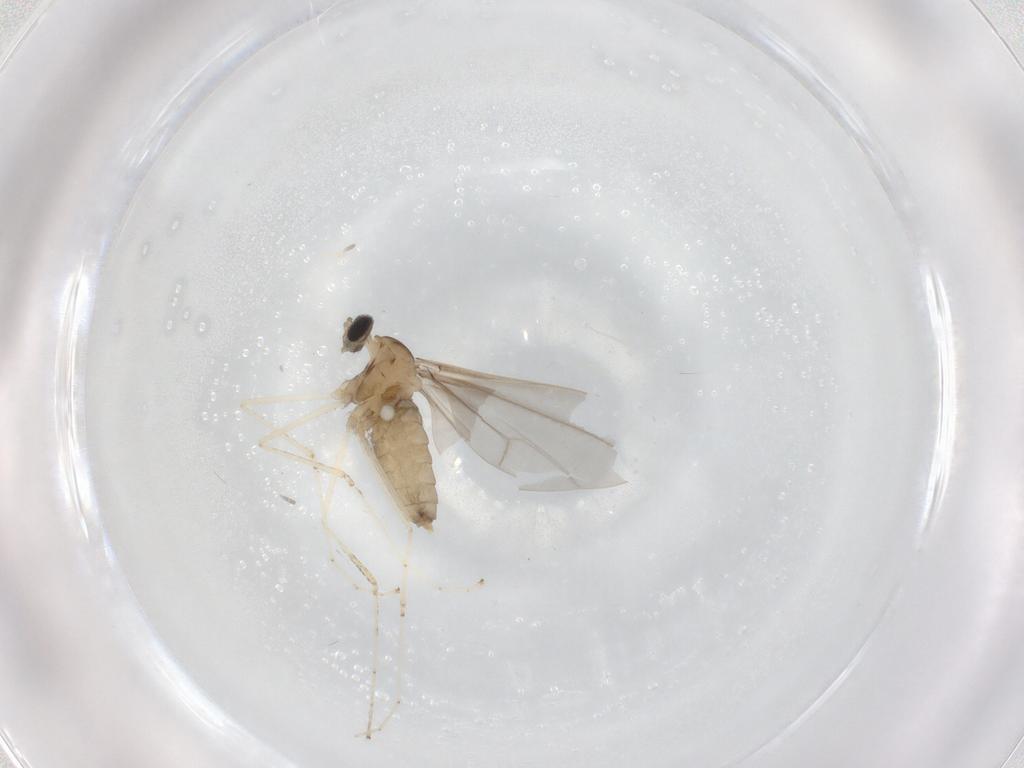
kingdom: Animalia
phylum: Arthropoda
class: Insecta
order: Diptera
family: Cecidomyiidae
